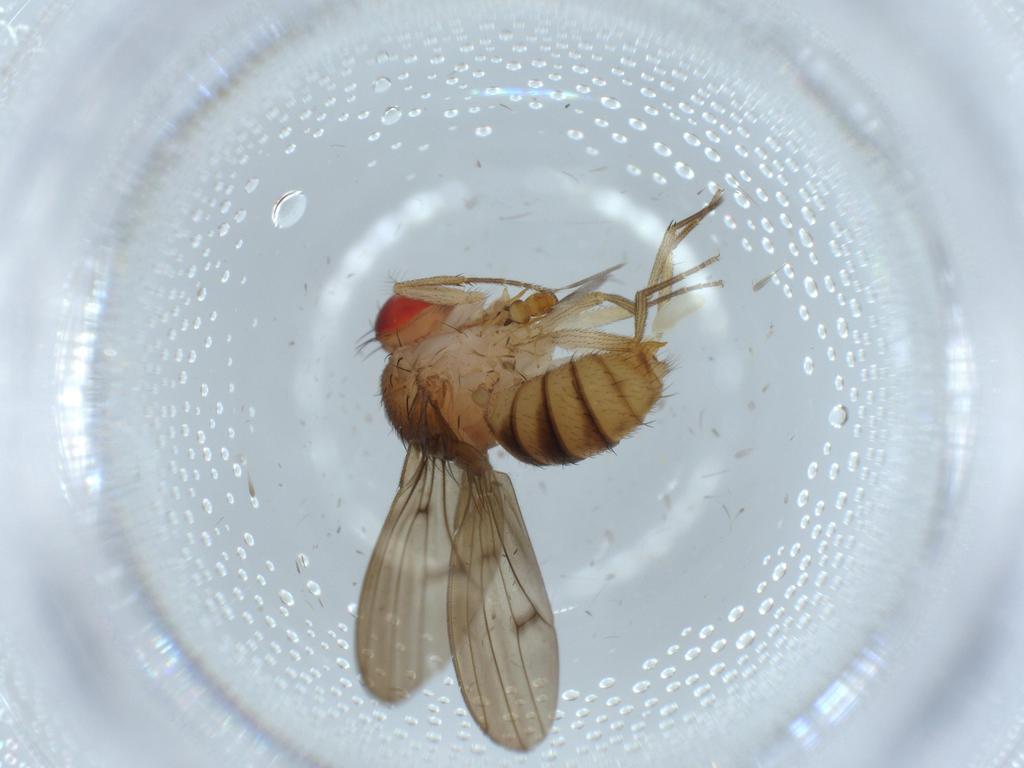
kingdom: Animalia
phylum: Arthropoda
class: Insecta
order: Diptera
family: Drosophilidae
